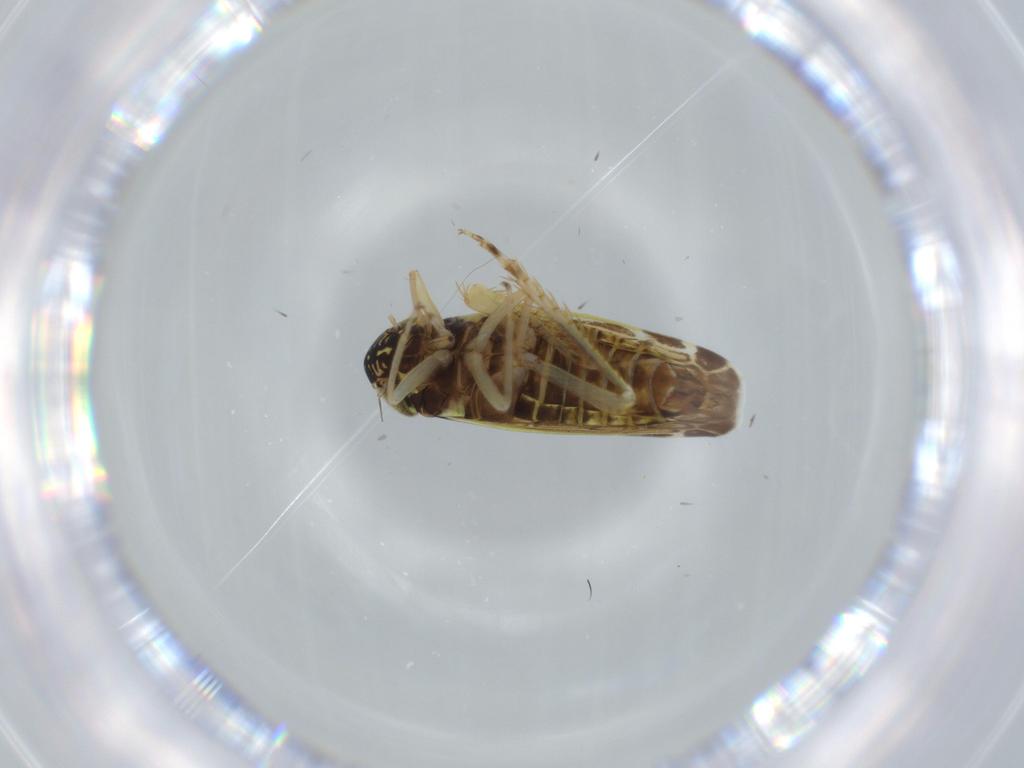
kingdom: Animalia
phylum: Arthropoda
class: Insecta
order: Hemiptera
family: Cicadellidae
